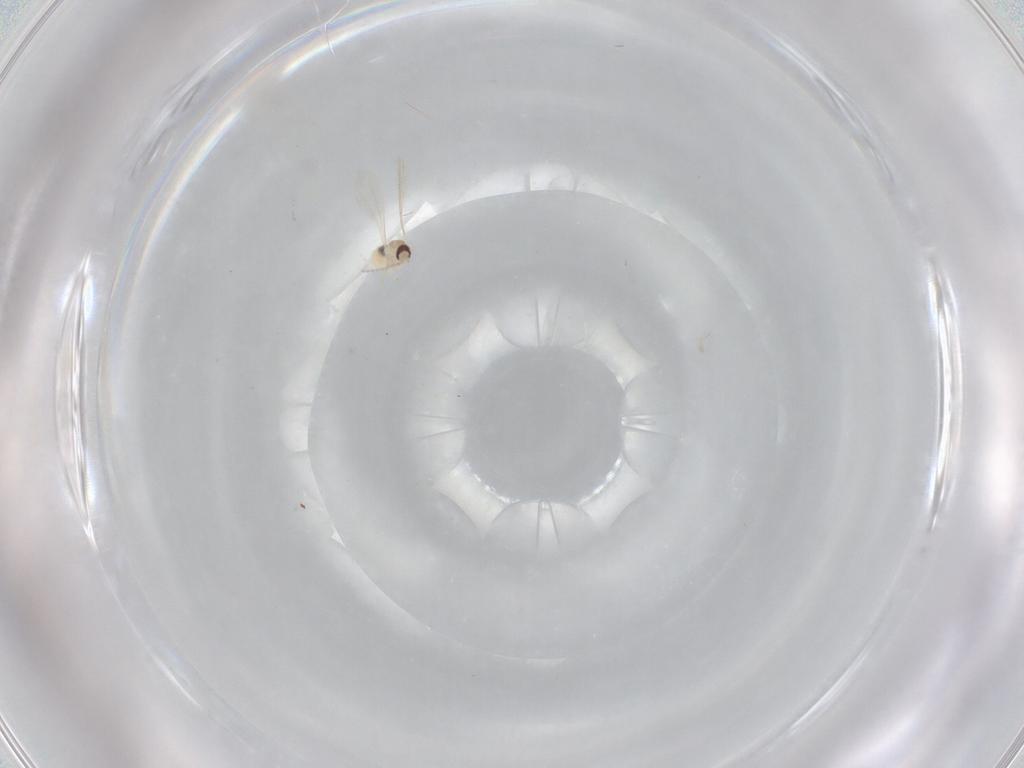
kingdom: Animalia
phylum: Arthropoda
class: Insecta
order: Diptera
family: Cecidomyiidae
